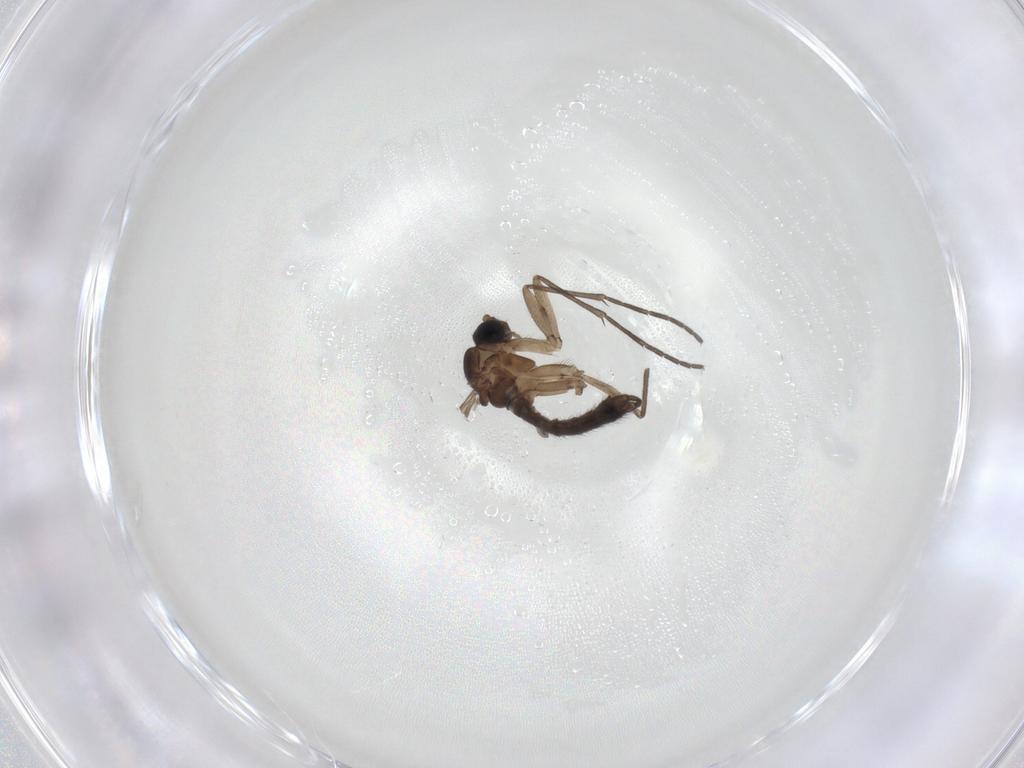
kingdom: Animalia
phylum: Arthropoda
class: Insecta
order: Diptera
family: Sciaridae
